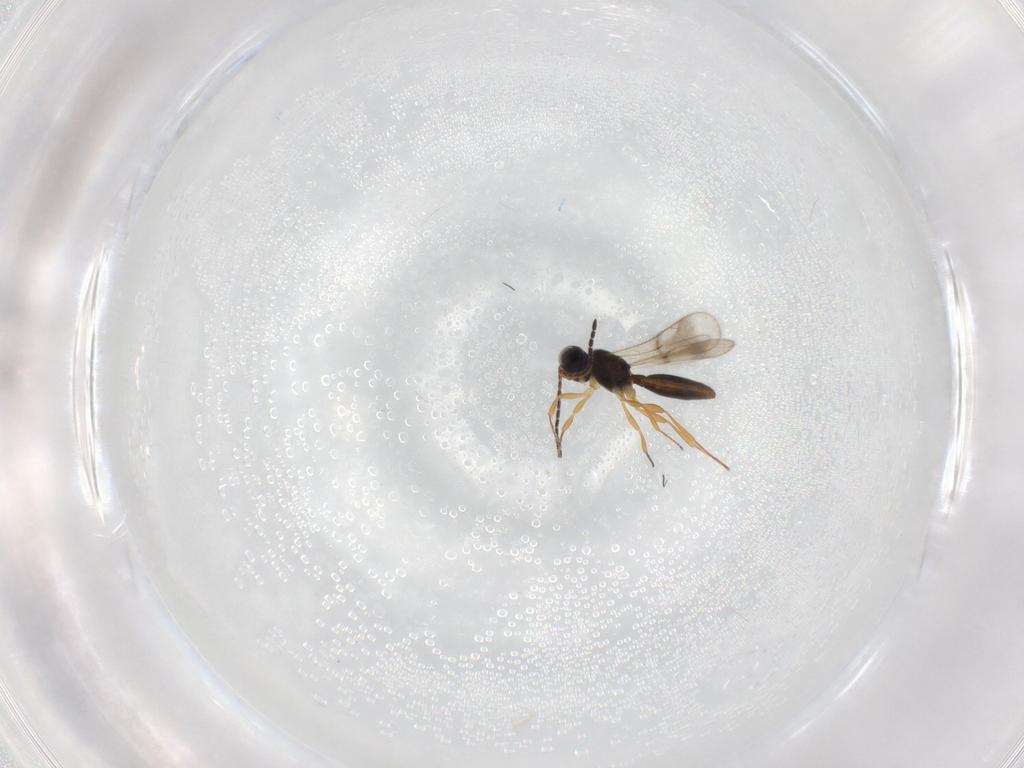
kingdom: Animalia
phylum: Arthropoda
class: Insecta
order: Hymenoptera
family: Scelionidae
